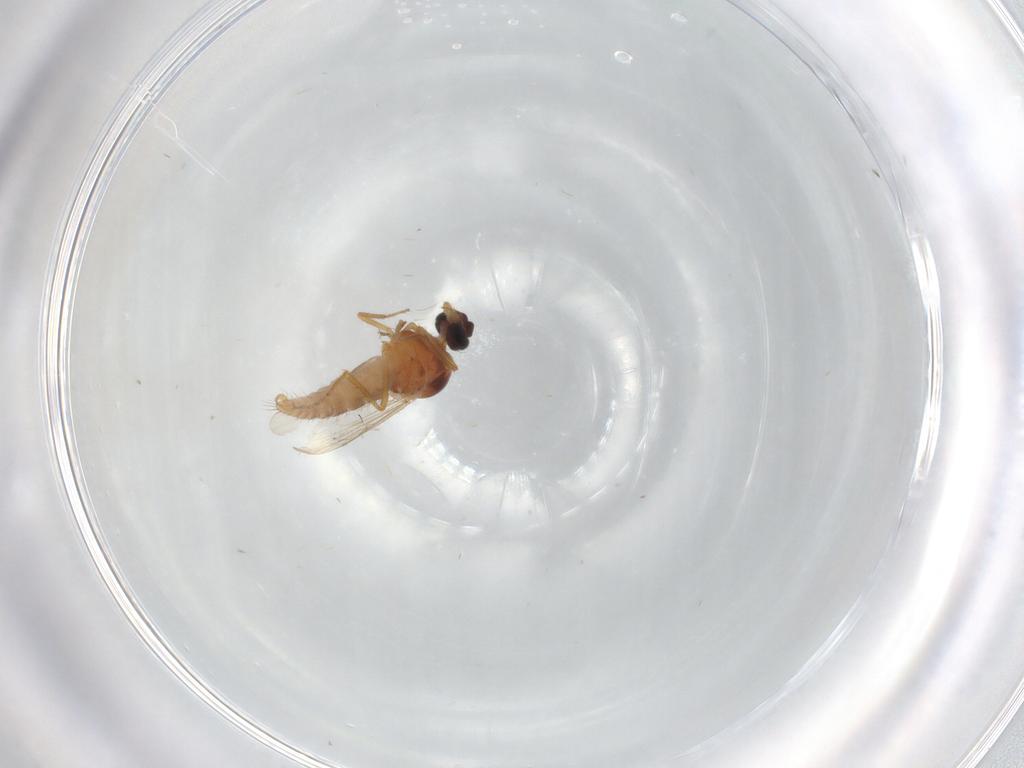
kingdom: Animalia
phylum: Arthropoda
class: Insecta
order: Diptera
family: Ceratopogonidae
